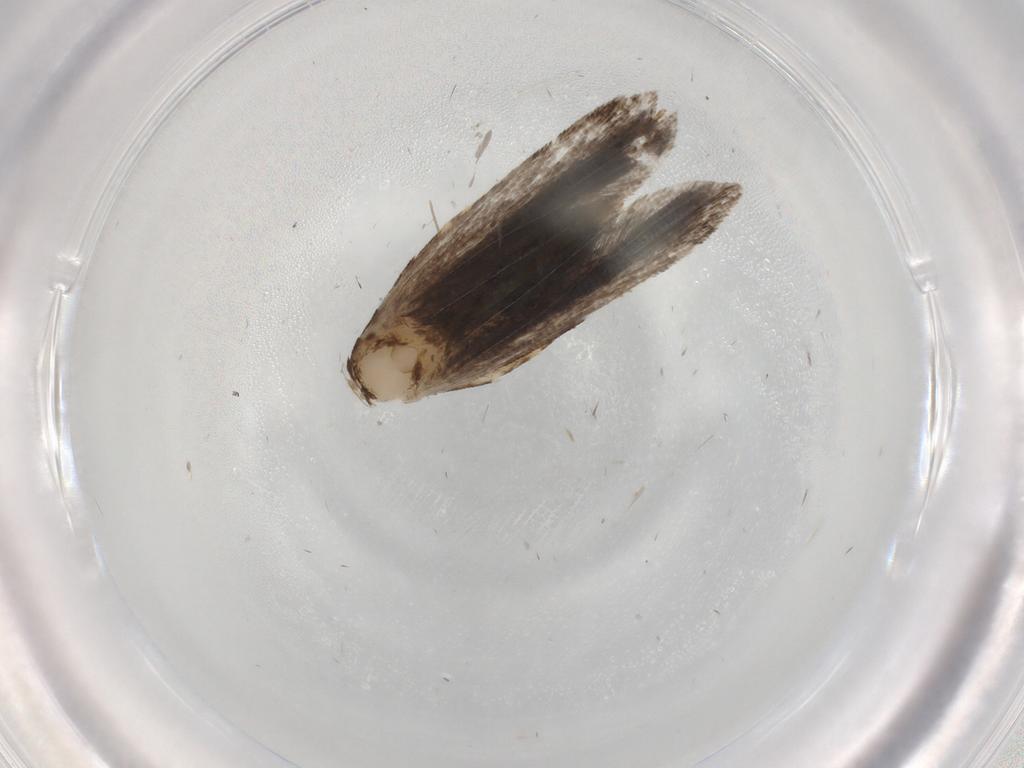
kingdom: Animalia
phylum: Arthropoda
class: Insecta
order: Lepidoptera
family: Gelechiidae
